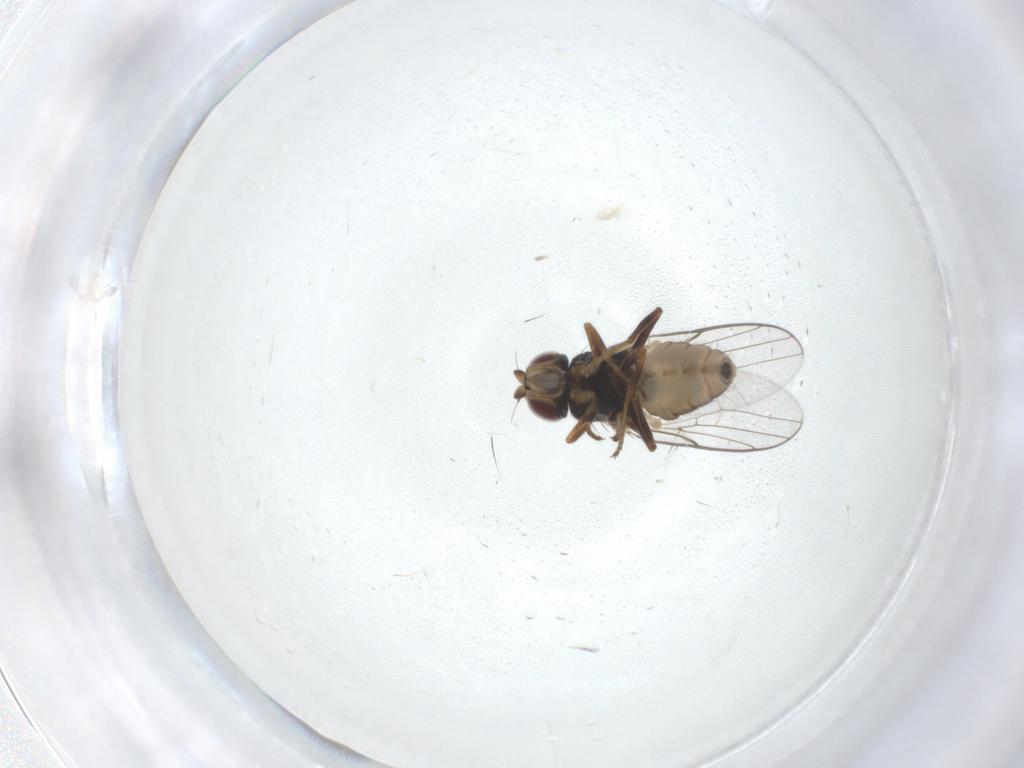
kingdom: Animalia
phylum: Arthropoda
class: Insecta
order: Diptera
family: Chloropidae
